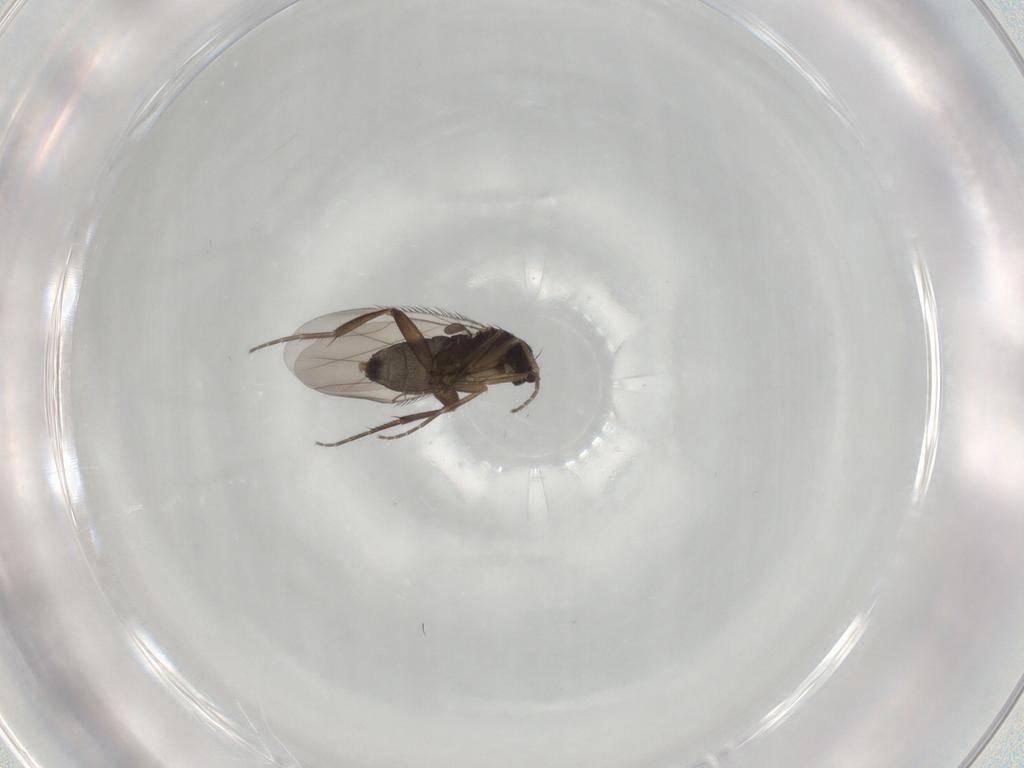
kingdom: Animalia
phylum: Arthropoda
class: Insecta
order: Diptera
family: Phoridae
